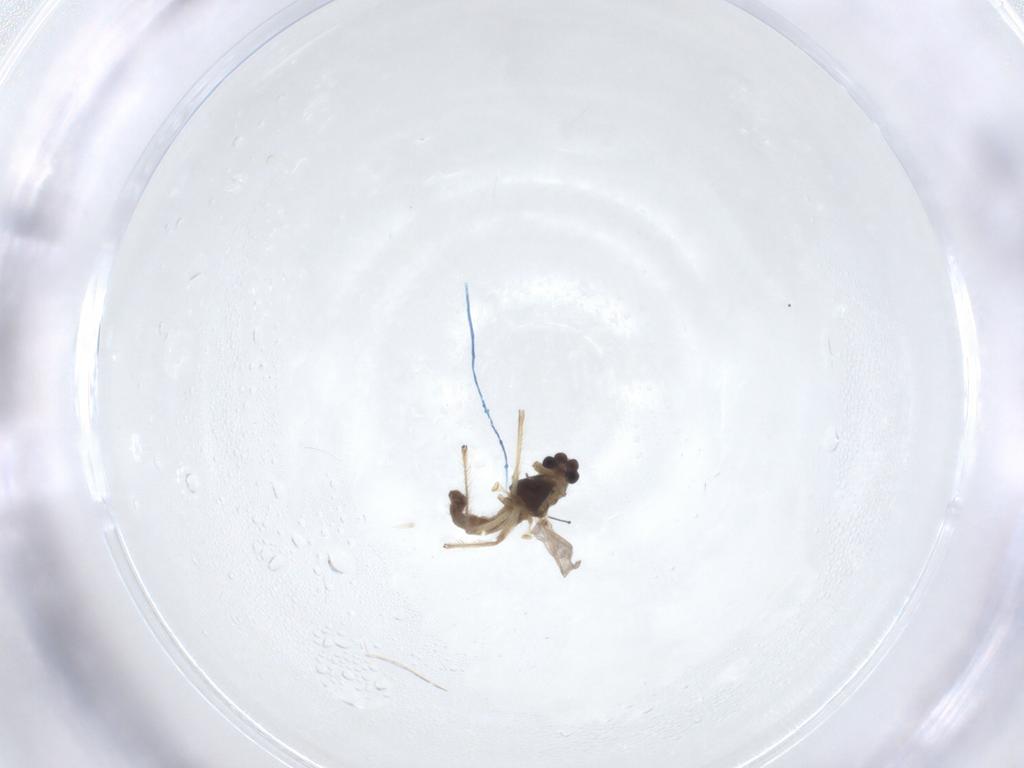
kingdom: Animalia
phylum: Arthropoda
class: Insecta
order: Diptera
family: Chironomidae
